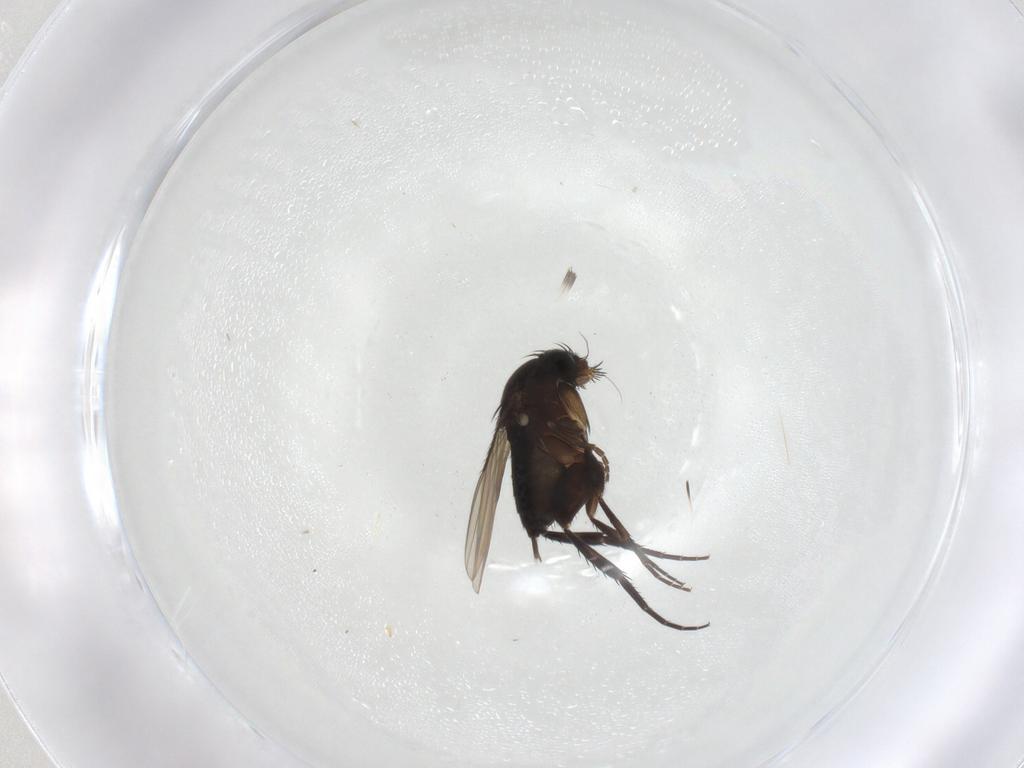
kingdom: Animalia
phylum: Arthropoda
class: Insecta
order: Diptera
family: Phoridae
